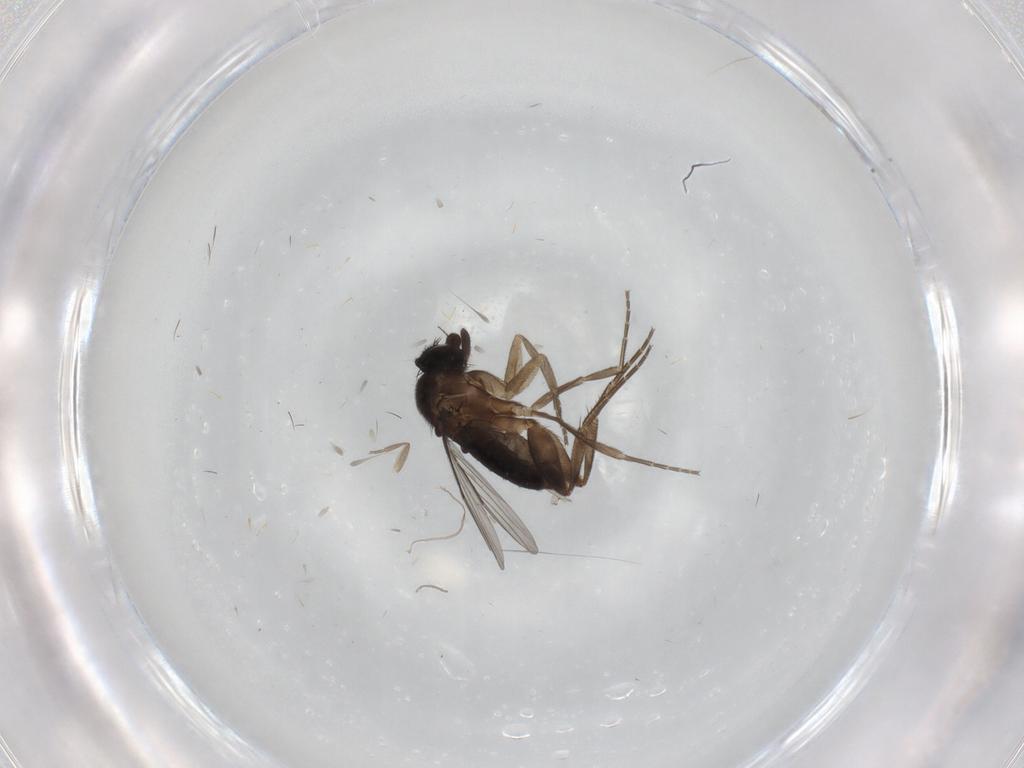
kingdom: Animalia
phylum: Arthropoda
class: Insecta
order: Diptera
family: Phoridae
